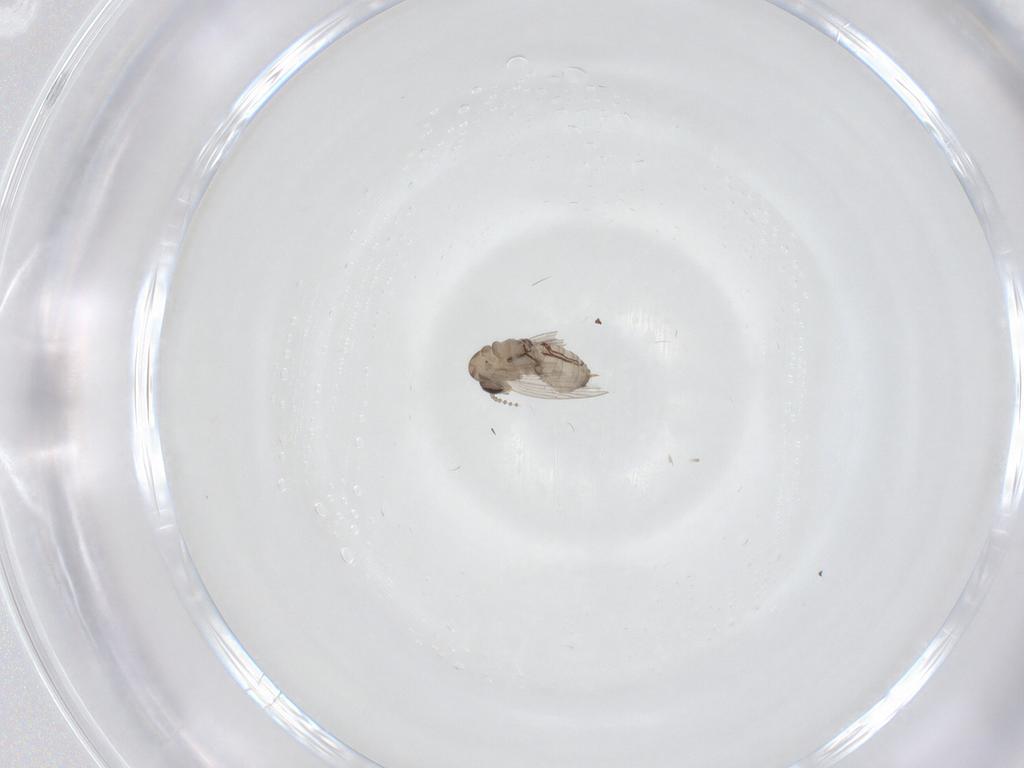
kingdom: Animalia
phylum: Arthropoda
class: Insecta
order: Diptera
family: Psychodidae
